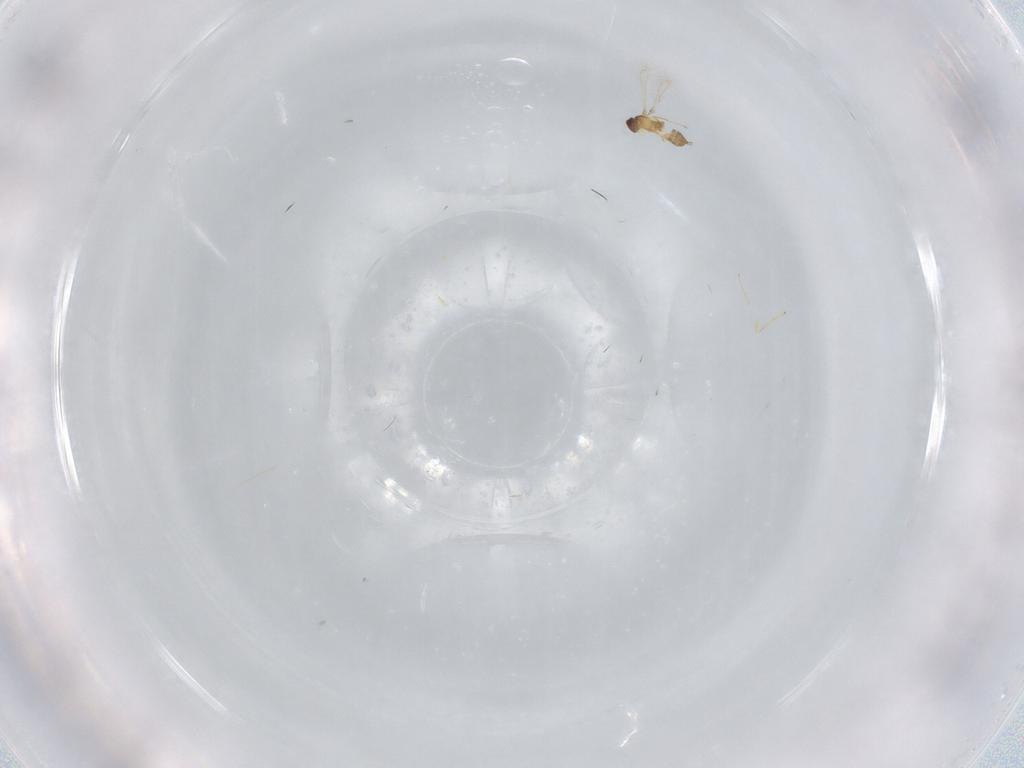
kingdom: Animalia
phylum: Arthropoda
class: Insecta
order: Hymenoptera
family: Mymaridae
